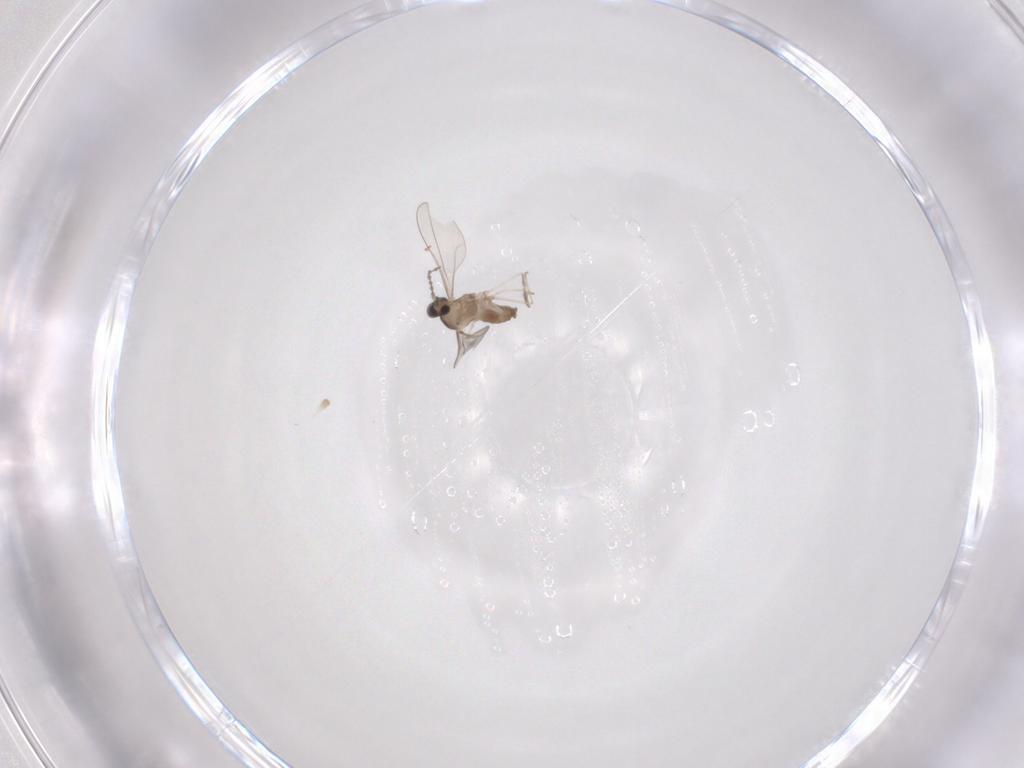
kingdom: Animalia
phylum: Arthropoda
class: Insecta
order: Diptera
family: Cecidomyiidae
